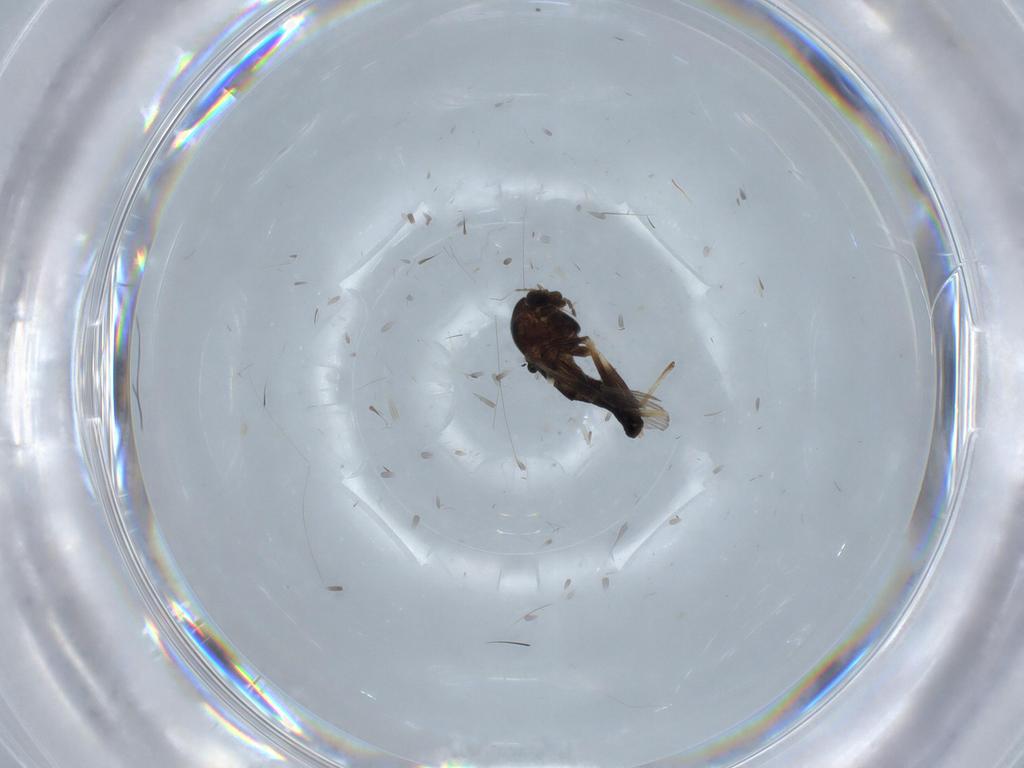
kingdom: Animalia
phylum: Arthropoda
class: Insecta
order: Diptera
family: Chironomidae
